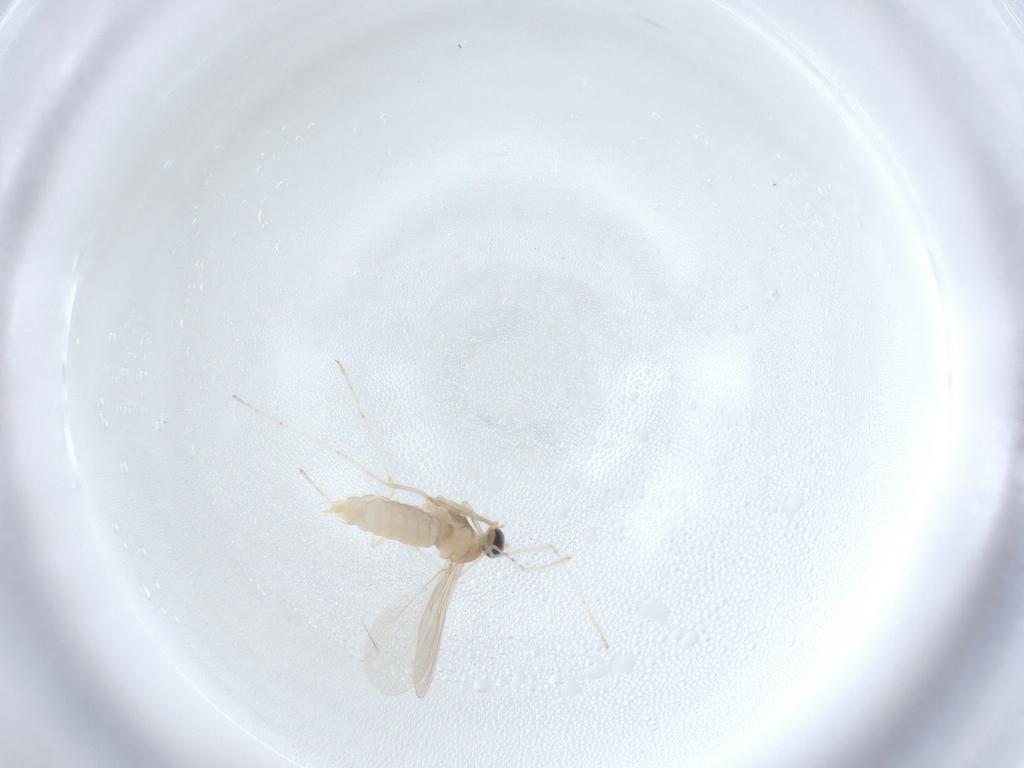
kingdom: Animalia
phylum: Arthropoda
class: Insecta
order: Diptera
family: Cecidomyiidae
